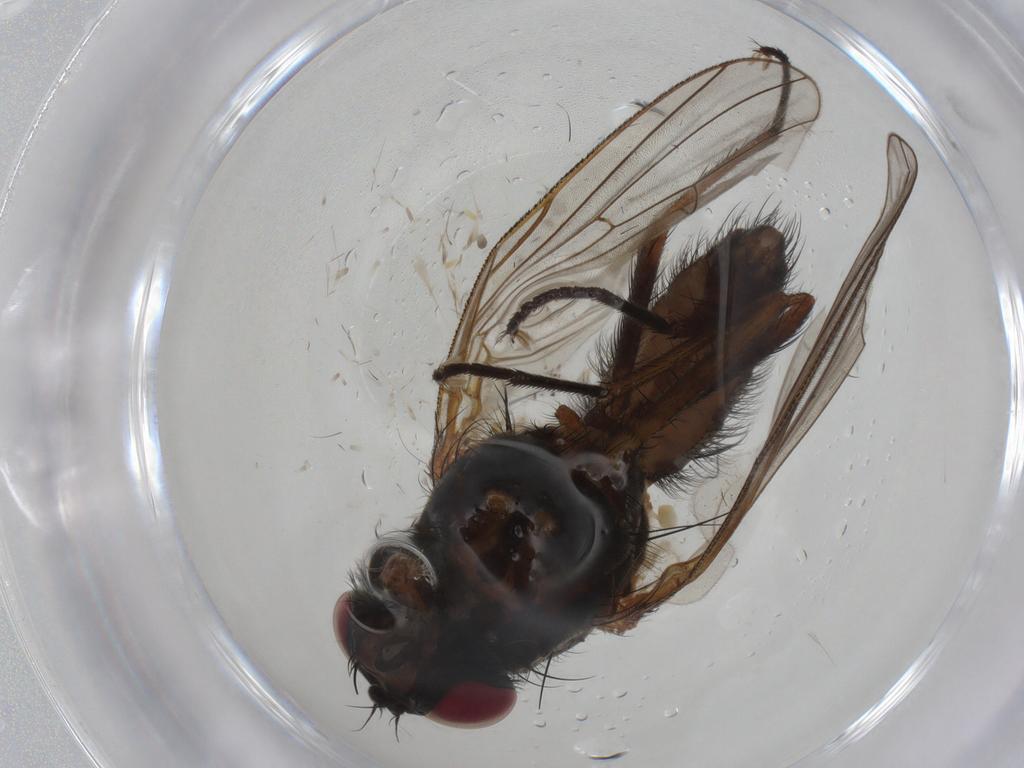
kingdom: Animalia
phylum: Arthropoda
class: Insecta
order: Diptera
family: Anthomyiidae
